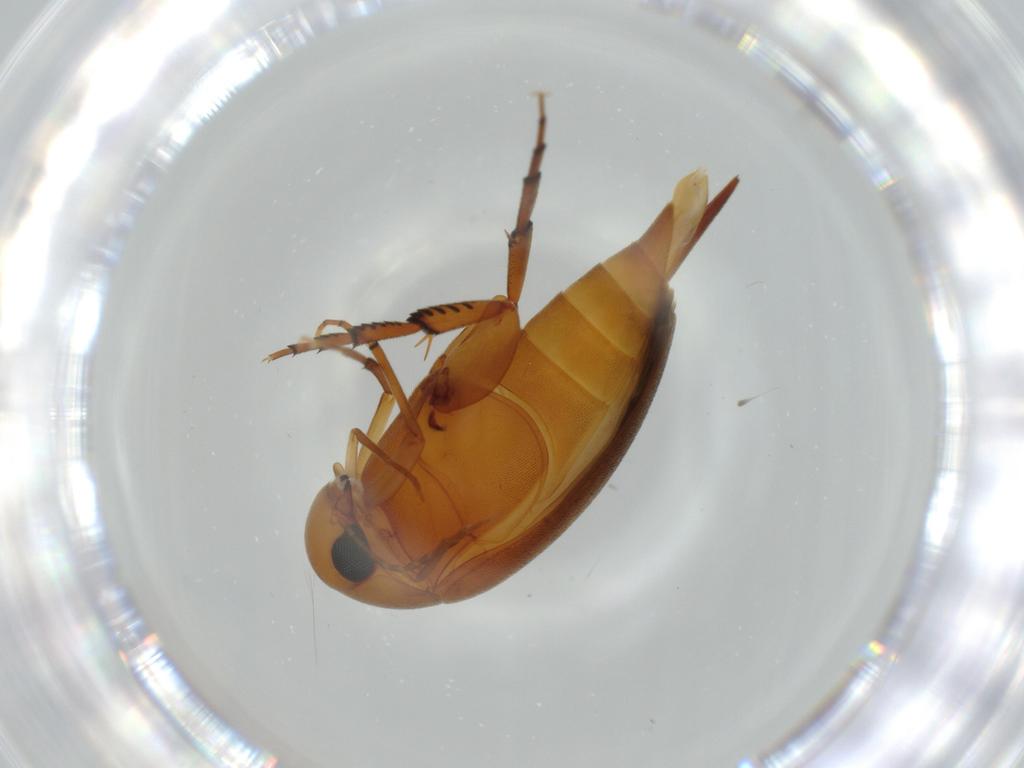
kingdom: Animalia
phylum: Arthropoda
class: Insecta
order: Coleoptera
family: Mordellidae
